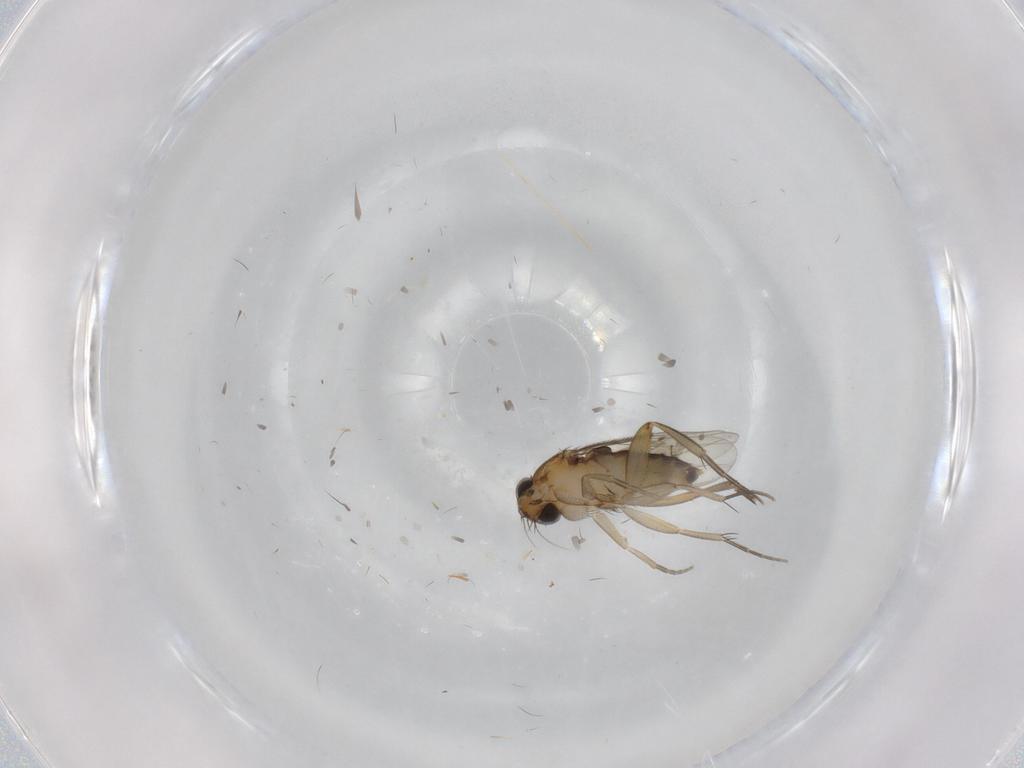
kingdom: Animalia
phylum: Arthropoda
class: Insecta
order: Diptera
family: Phoridae
